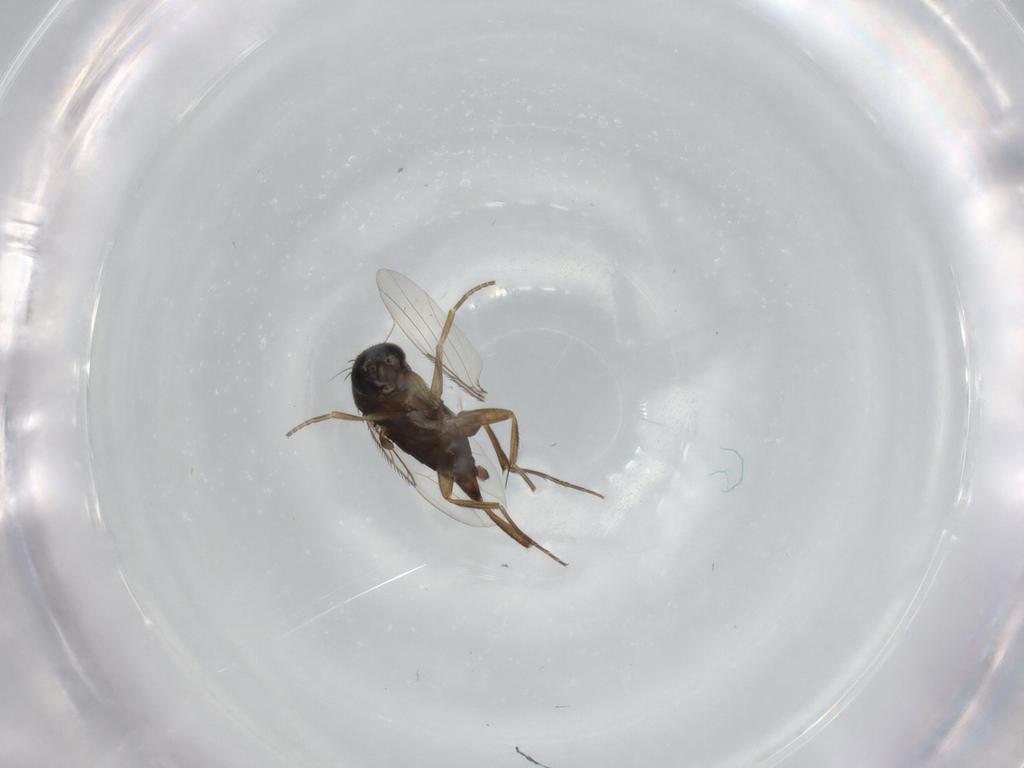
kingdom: Animalia
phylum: Arthropoda
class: Insecta
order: Diptera
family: Phoridae
